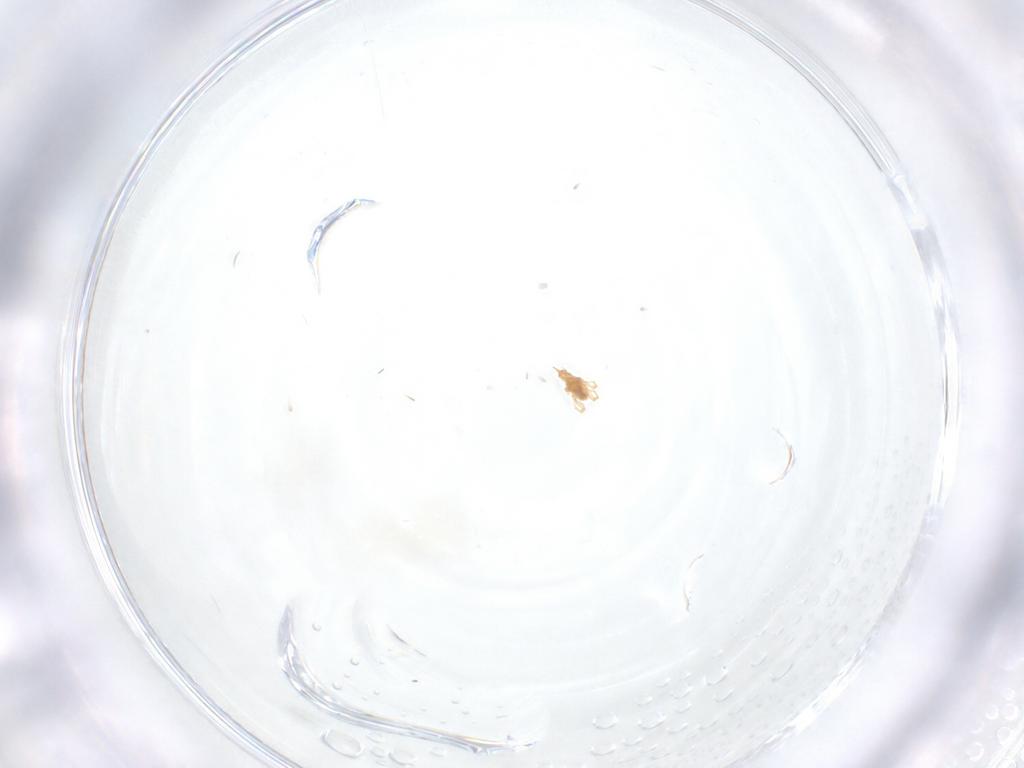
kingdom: Animalia
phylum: Arthropoda
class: Arachnida
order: Trombidiformes
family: Cunaxidae
